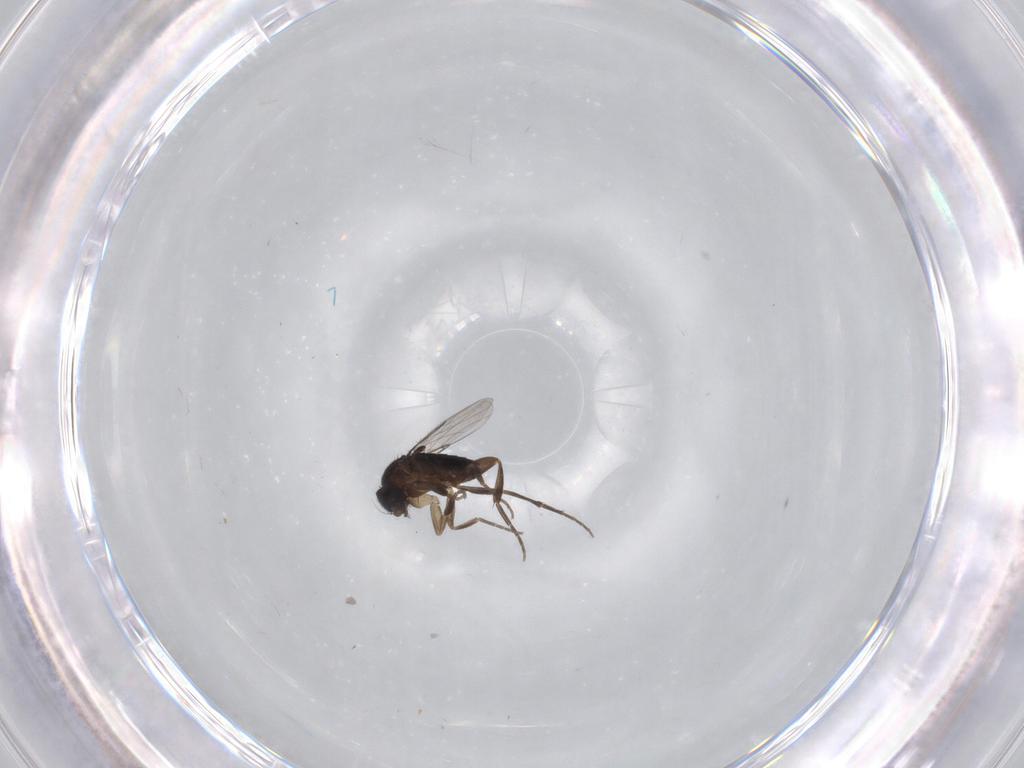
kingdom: Animalia
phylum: Arthropoda
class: Insecta
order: Diptera
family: Phoridae
